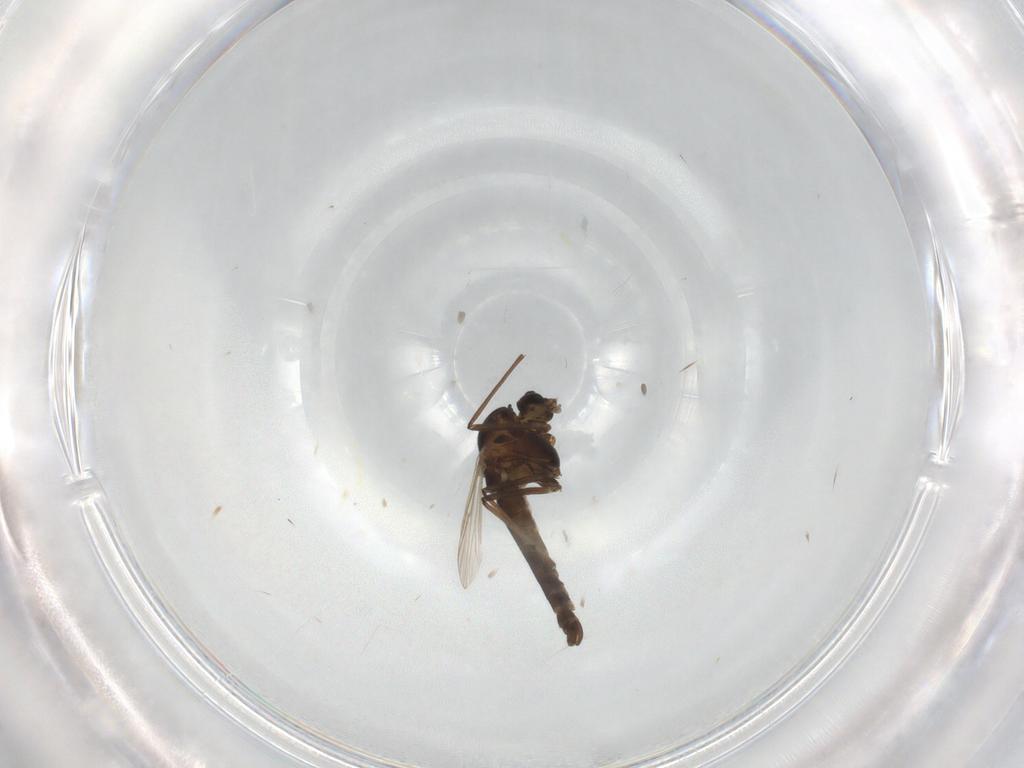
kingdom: Animalia
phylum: Arthropoda
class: Insecta
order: Diptera
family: Chironomidae
